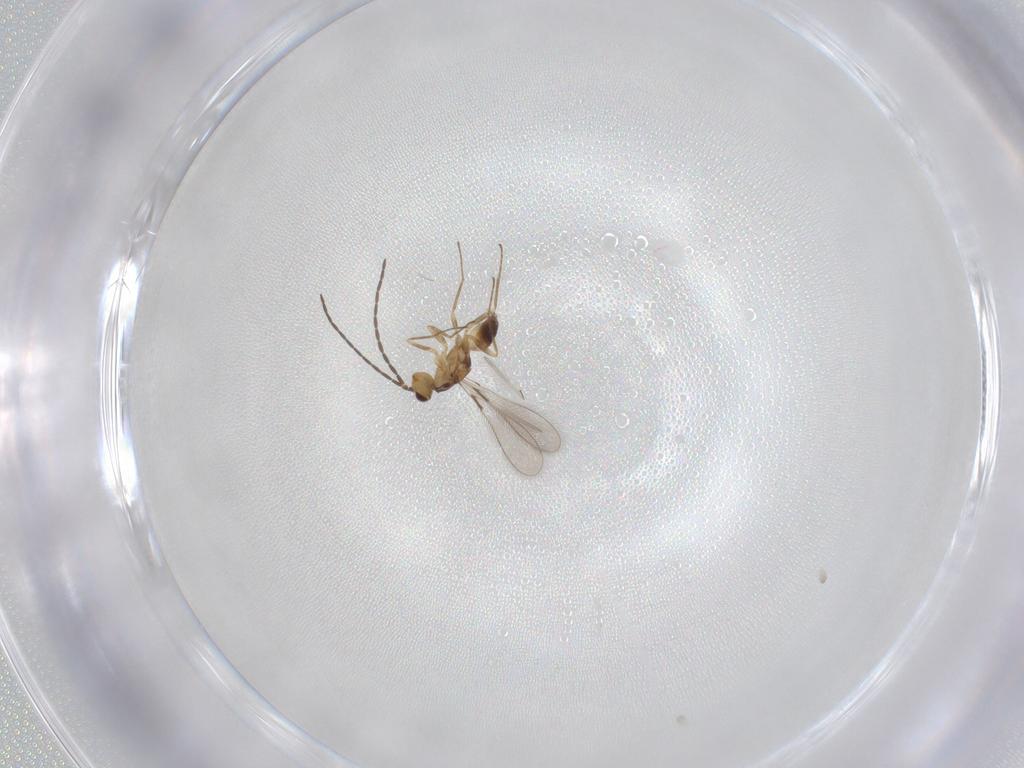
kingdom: Animalia
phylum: Arthropoda
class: Insecta
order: Hymenoptera
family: Mymaridae
